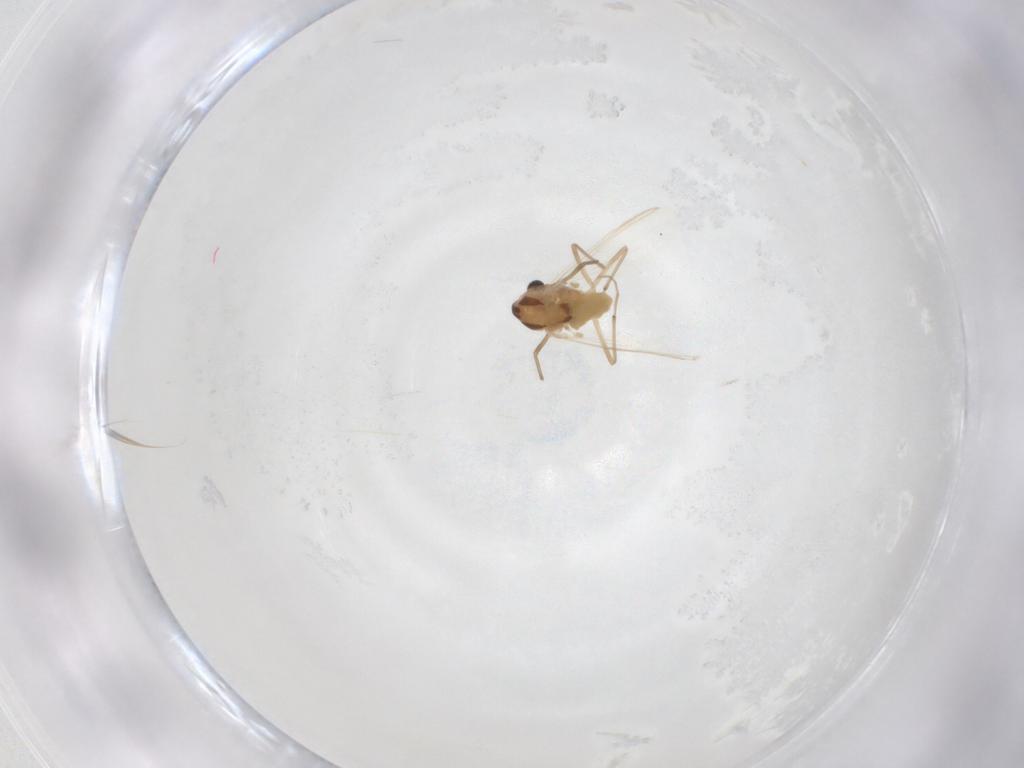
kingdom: Animalia
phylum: Arthropoda
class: Insecta
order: Diptera
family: Chironomidae
